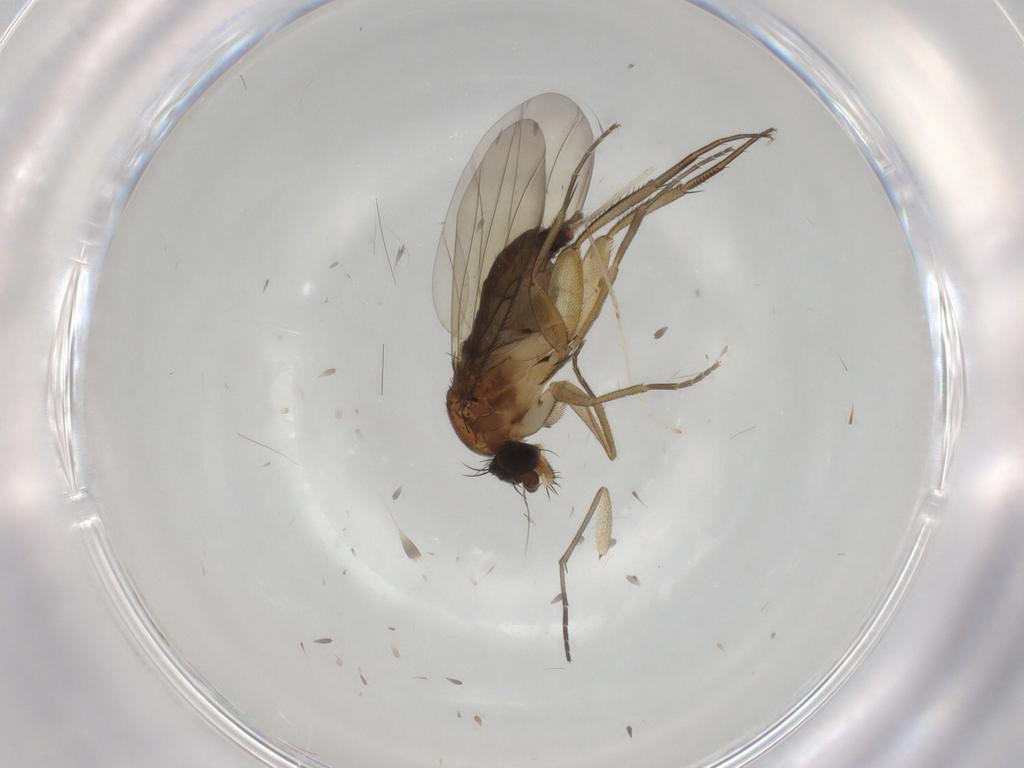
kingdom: Animalia
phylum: Arthropoda
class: Insecta
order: Diptera
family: Phoridae
